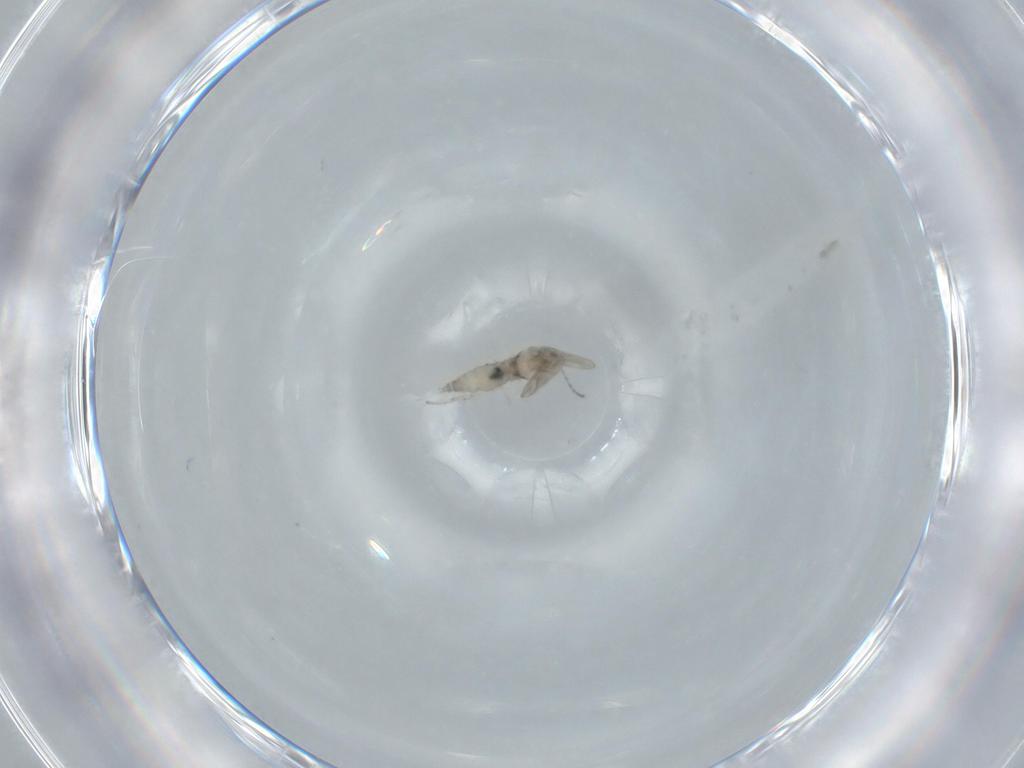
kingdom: Animalia
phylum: Arthropoda
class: Insecta
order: Diptera
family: Cecidomyiidae
